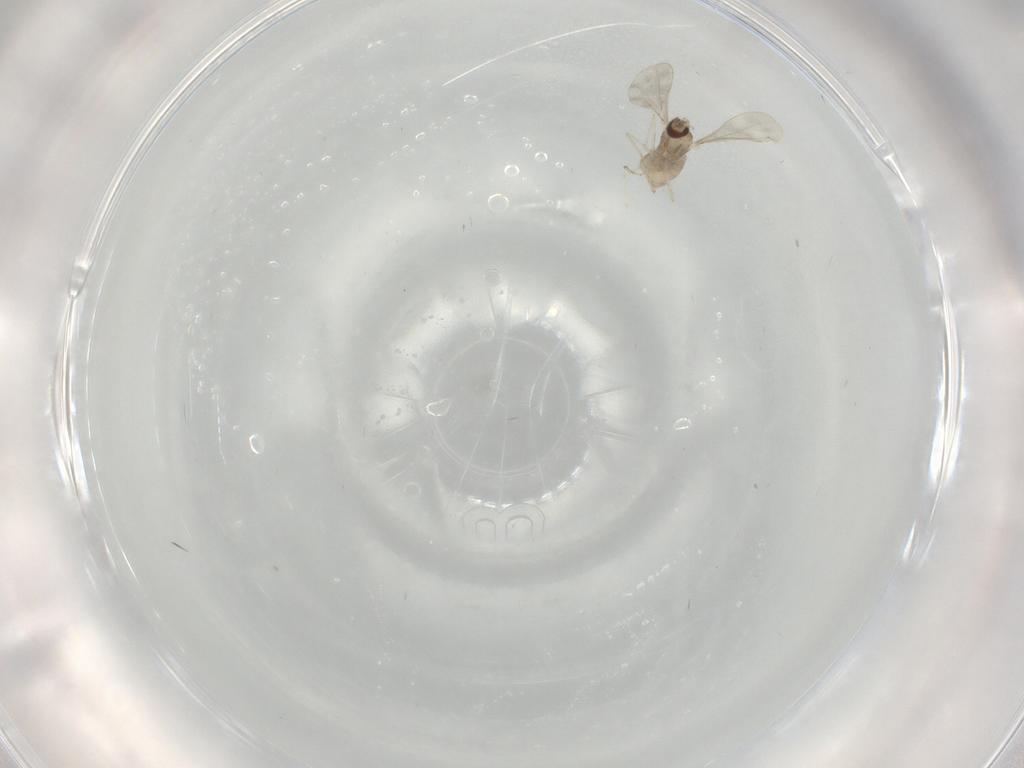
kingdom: Animalia
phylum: Arthropoda
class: Insecta
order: Diptera
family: Cecidomyiidae
